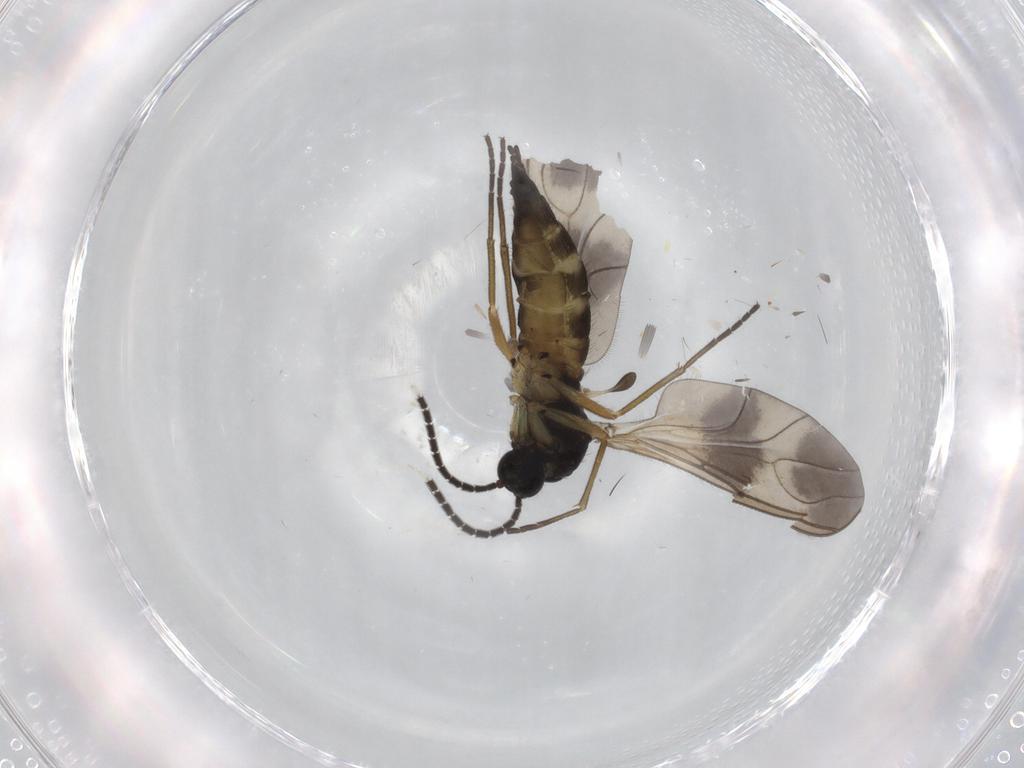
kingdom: Animalia
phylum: Arthropoda
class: Insecta
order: Diptera
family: Sciaridae
